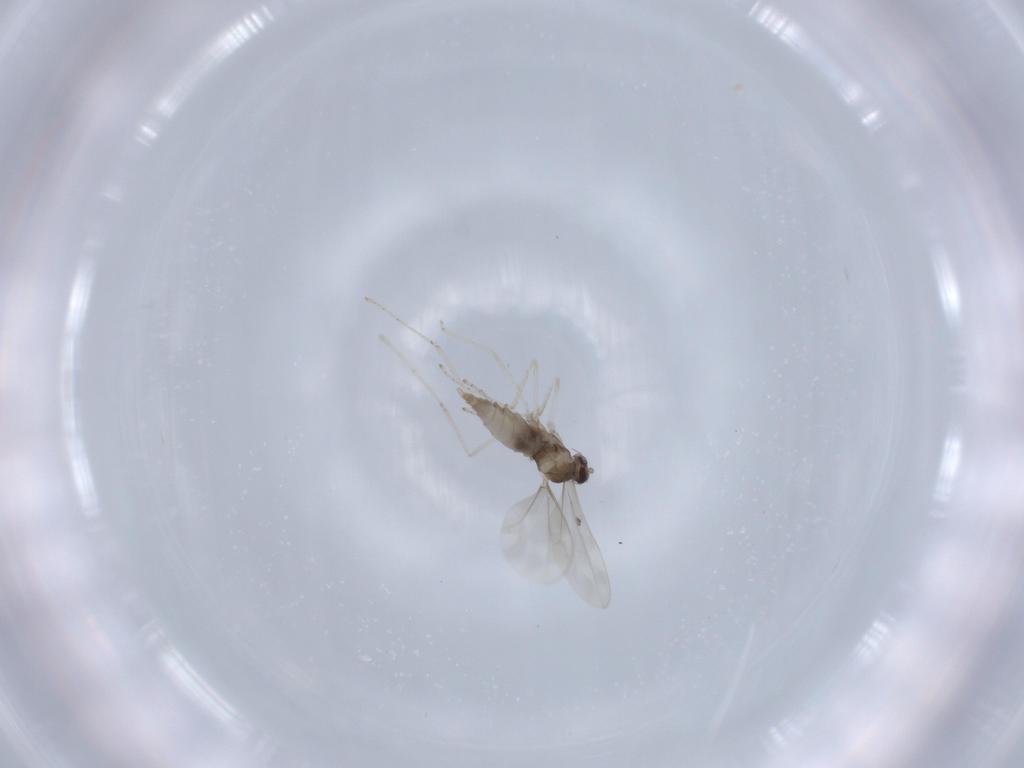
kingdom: Animalia
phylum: Arthropoda
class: Insecta
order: Diptera
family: Cecidomyiidae
